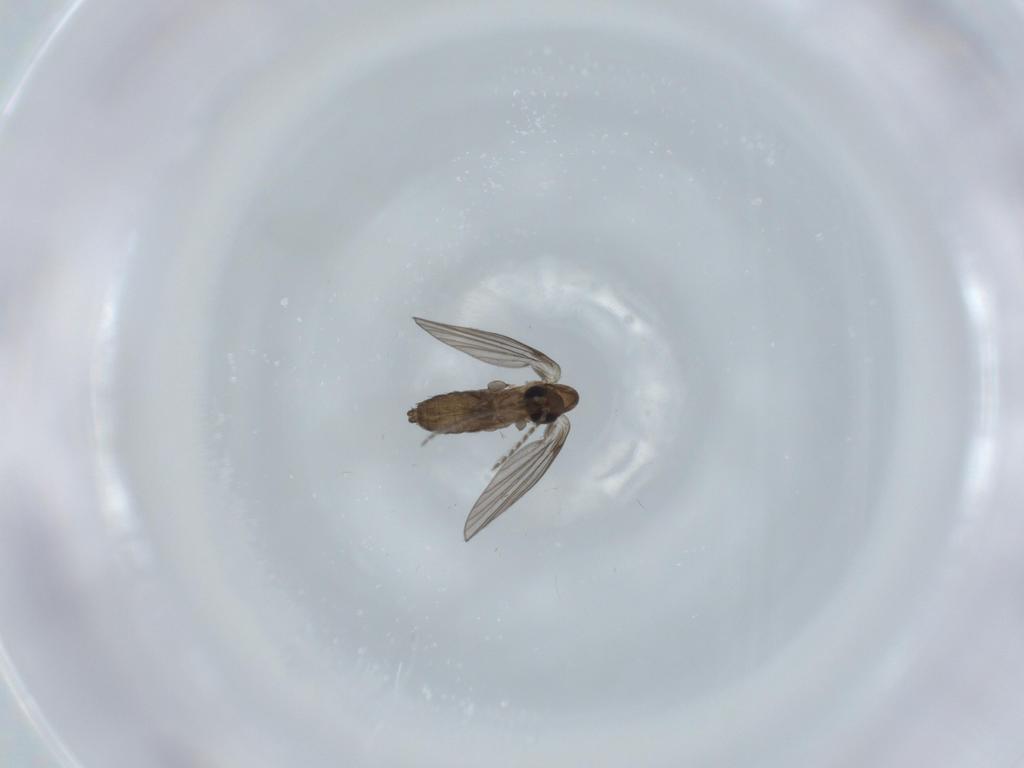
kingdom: Animalia
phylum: Arthropoda
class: Insecta
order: Diptera
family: Psychodidae
